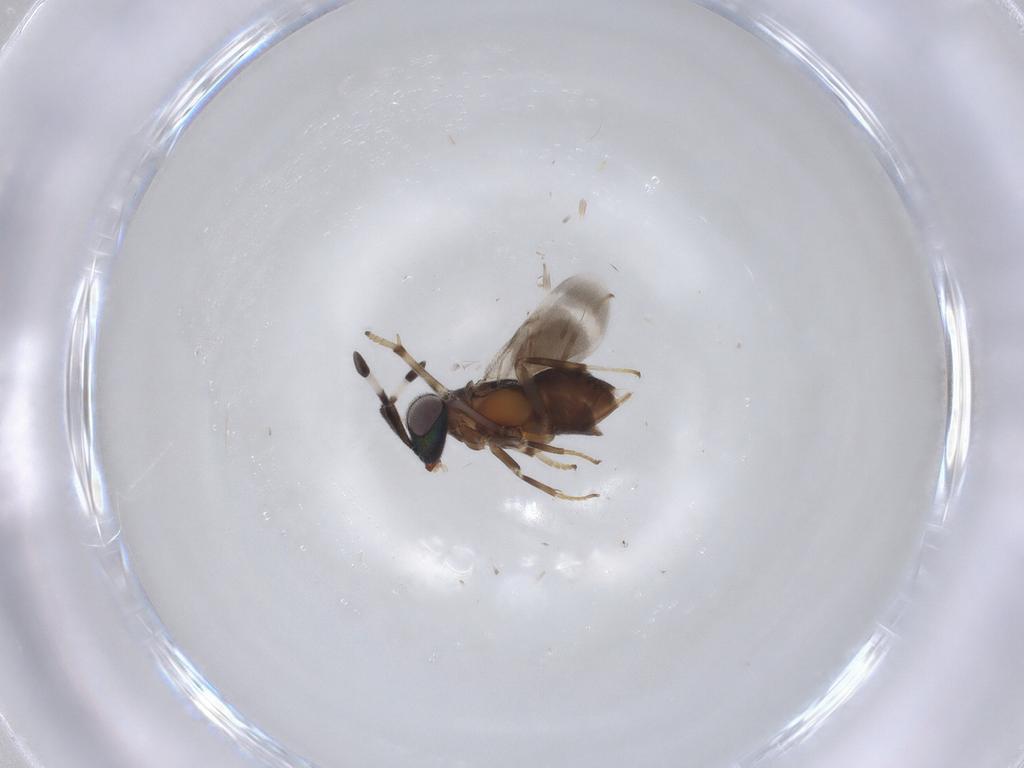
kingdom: Animalia
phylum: Arthropoda
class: Insecta
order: Hymenoptera
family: Encyrtidae
